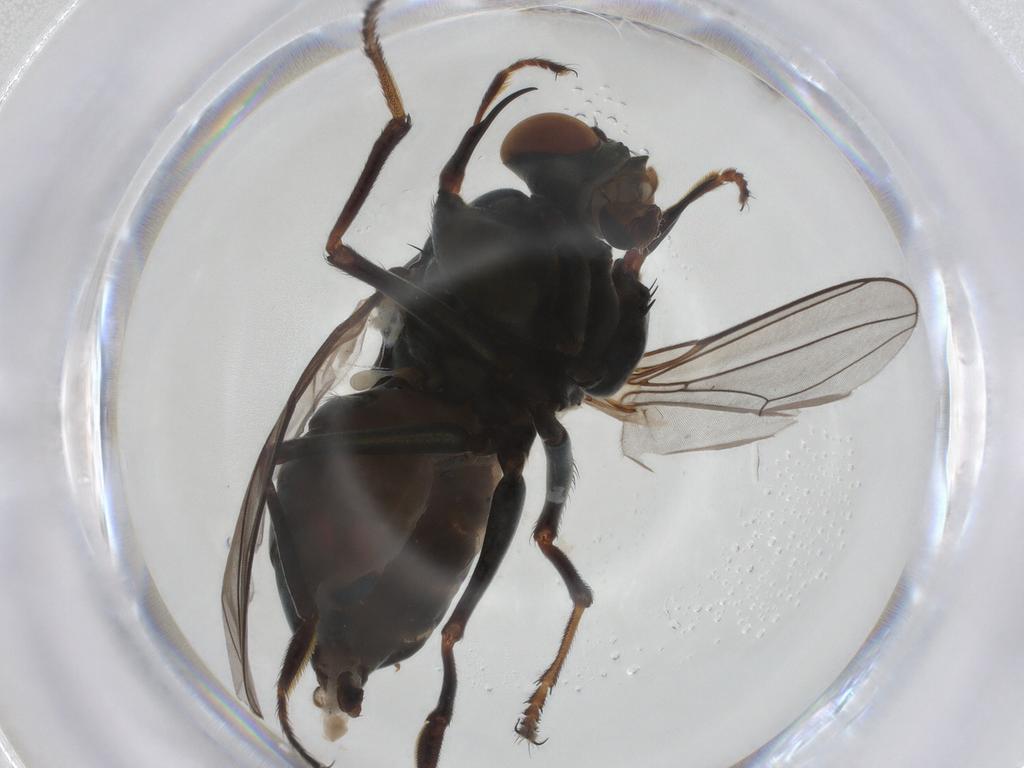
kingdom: Animalia
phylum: Arthropoda
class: Insecta
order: Diptera
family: Ephydridae
